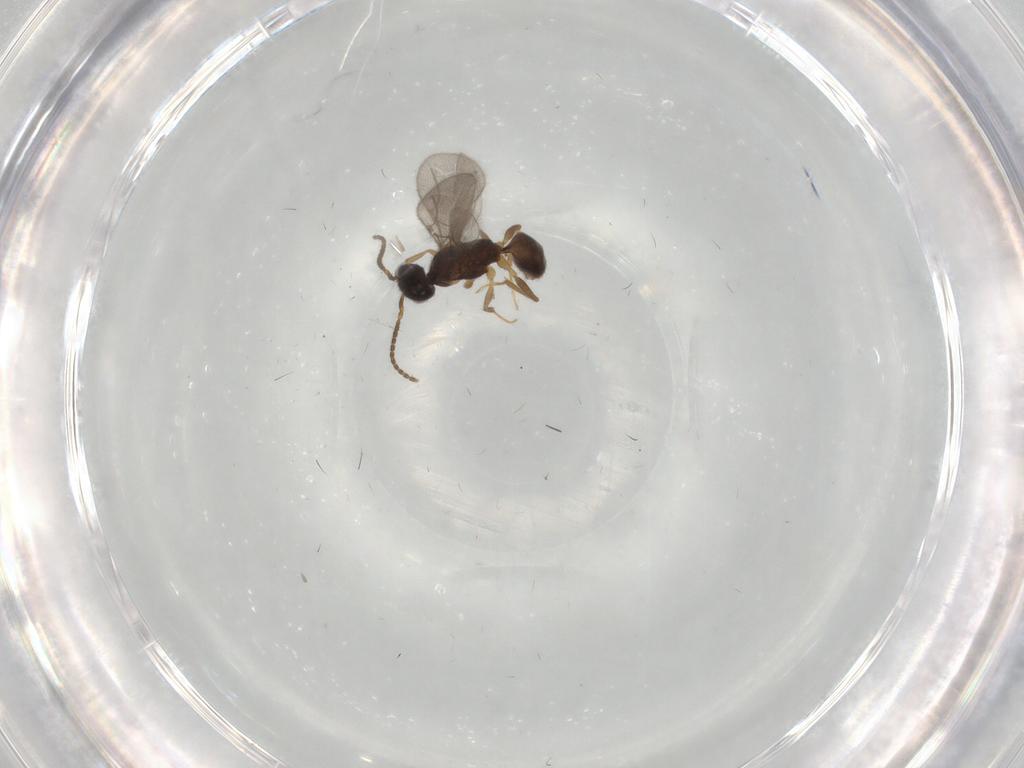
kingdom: Animalia
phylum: Arthropoda
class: Insecta
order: Hymenoptera
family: Bethylidae
